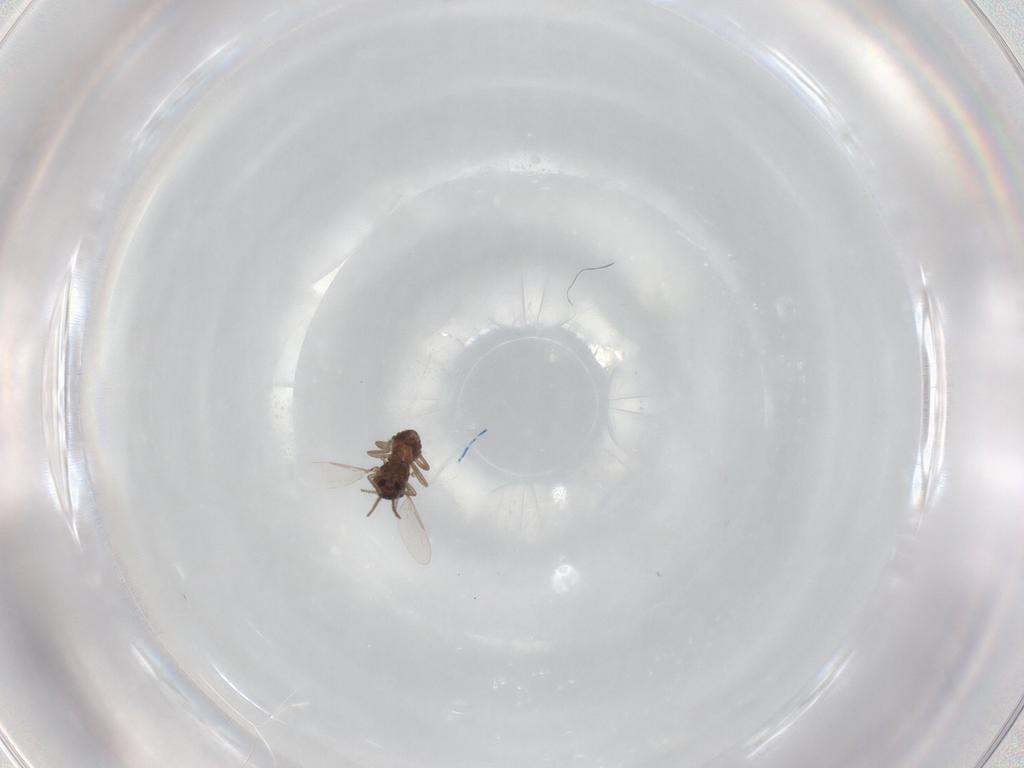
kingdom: Animalia
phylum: Arthropoda
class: Insecta
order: Diptera
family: Ceratopogonidae
